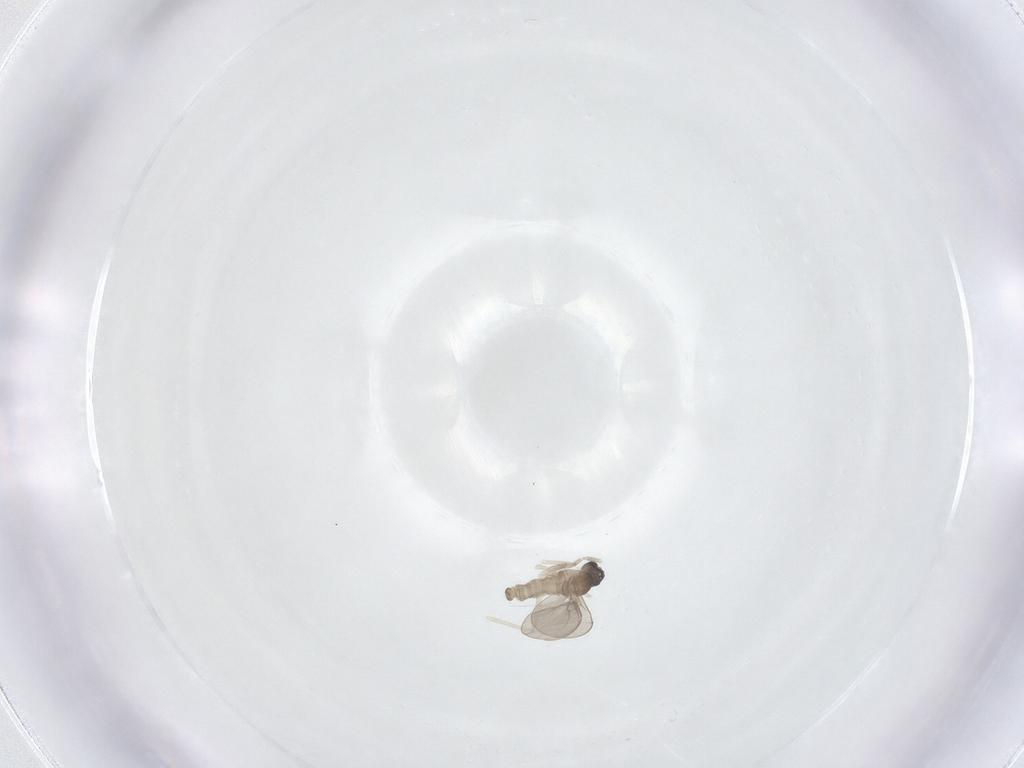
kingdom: Animalia
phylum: Arthropoda
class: Insecta
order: Diptera
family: Cecidomyiidae
